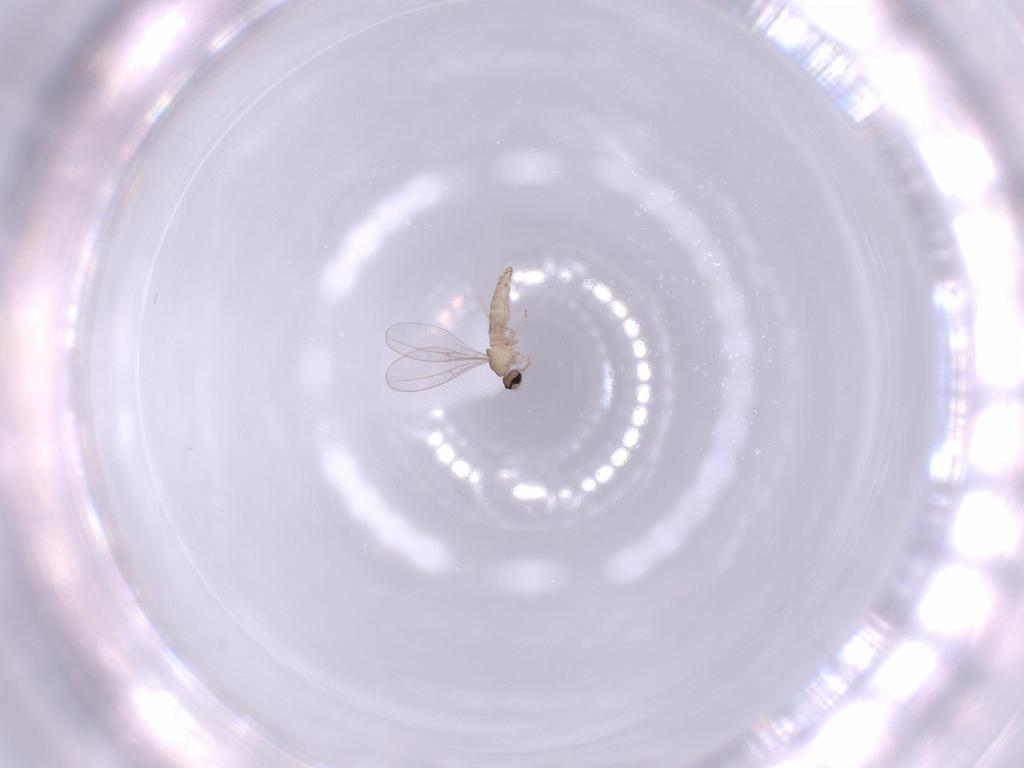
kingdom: Animalia
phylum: Arthropoda
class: Insecta
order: Diptera
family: Cecidomyiidae
